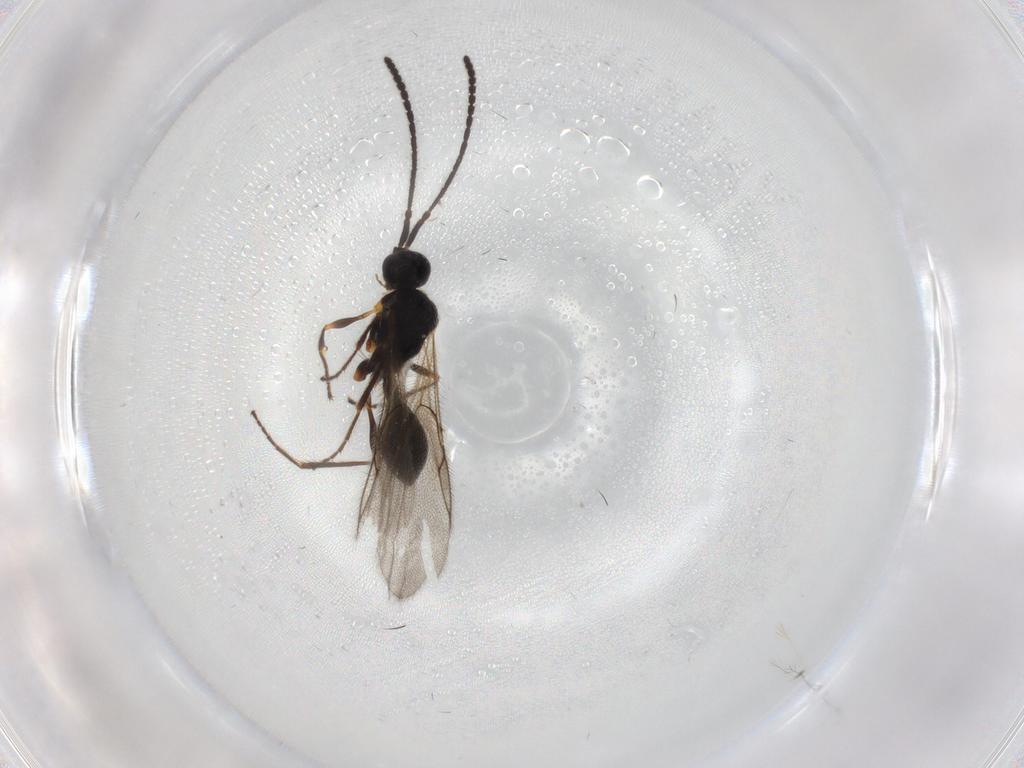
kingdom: Animalia
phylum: Arthropoda
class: Insecta
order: Hymenoptera
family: Diapriidae
